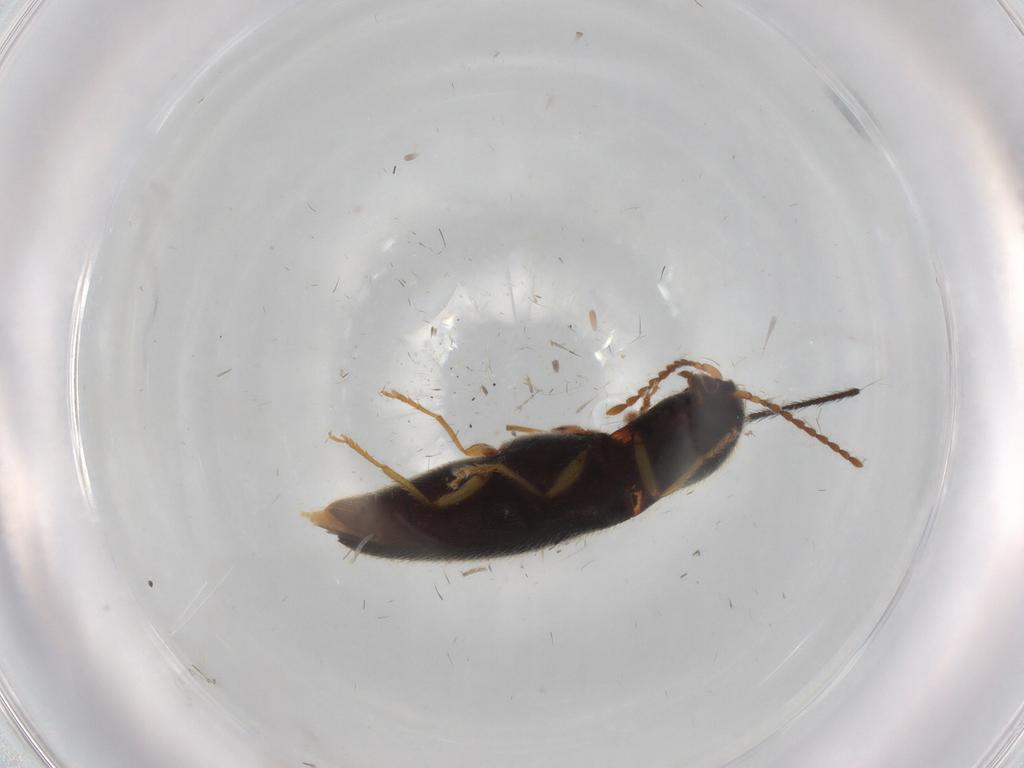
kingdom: Animalia
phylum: Arthropoda
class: Insecta
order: Coleoptera
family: Elateridae
